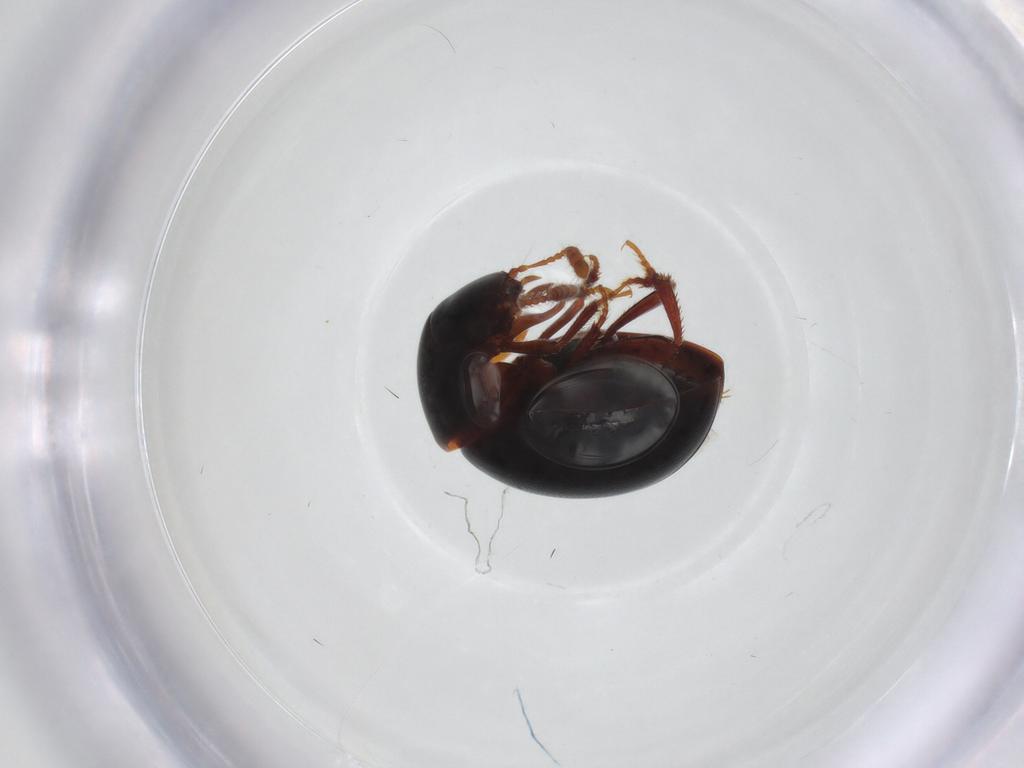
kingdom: Animalia
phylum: Arthropoda
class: Insecta
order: Coleoptera
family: Leiodidae
